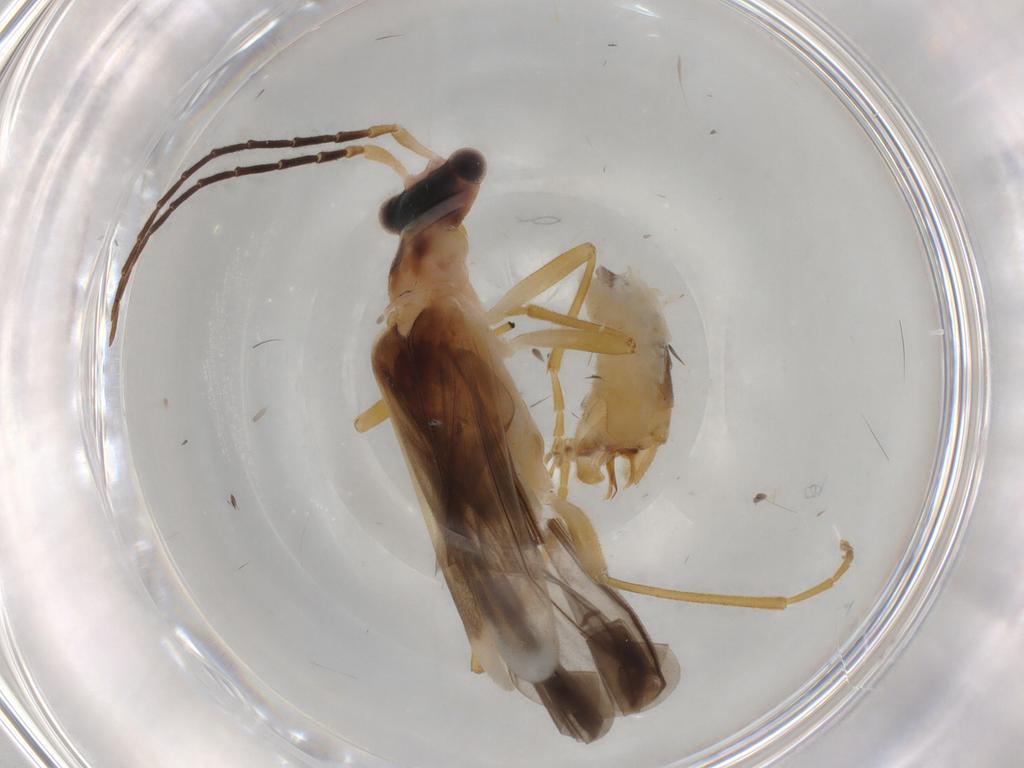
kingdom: Animalia
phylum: Arthropoda
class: Insecta
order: Coleoptera
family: Cantharidae
